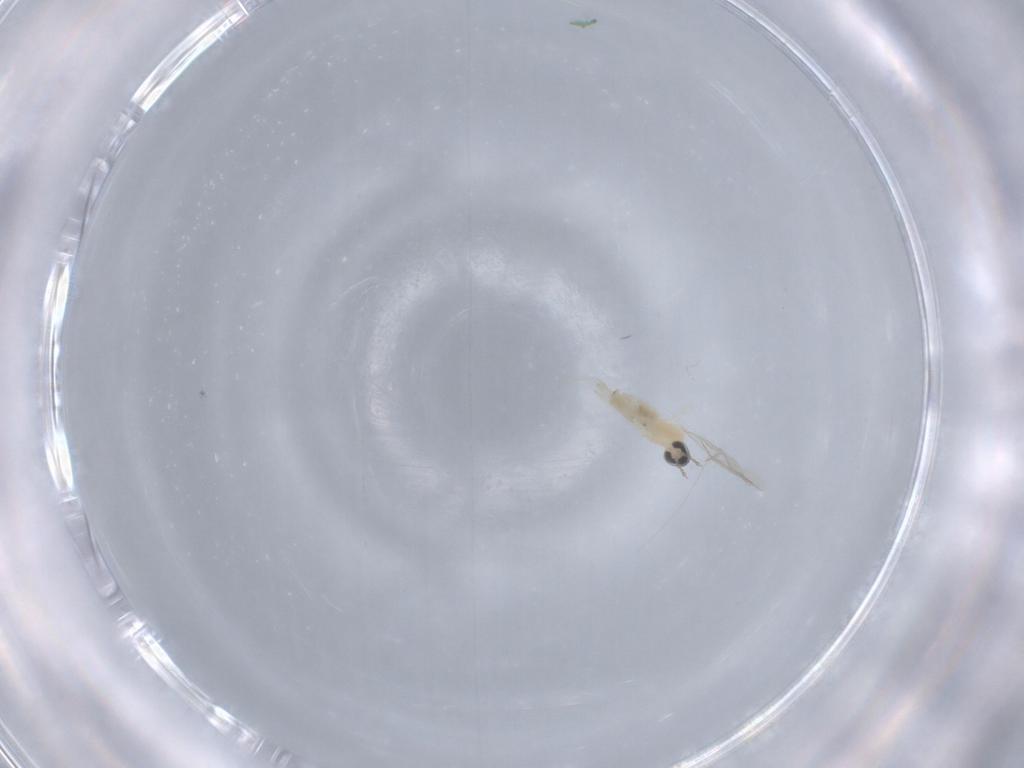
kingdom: Animalia
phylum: Arthropoda
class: Insecta
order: Diptera
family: Cecidomyiidae
